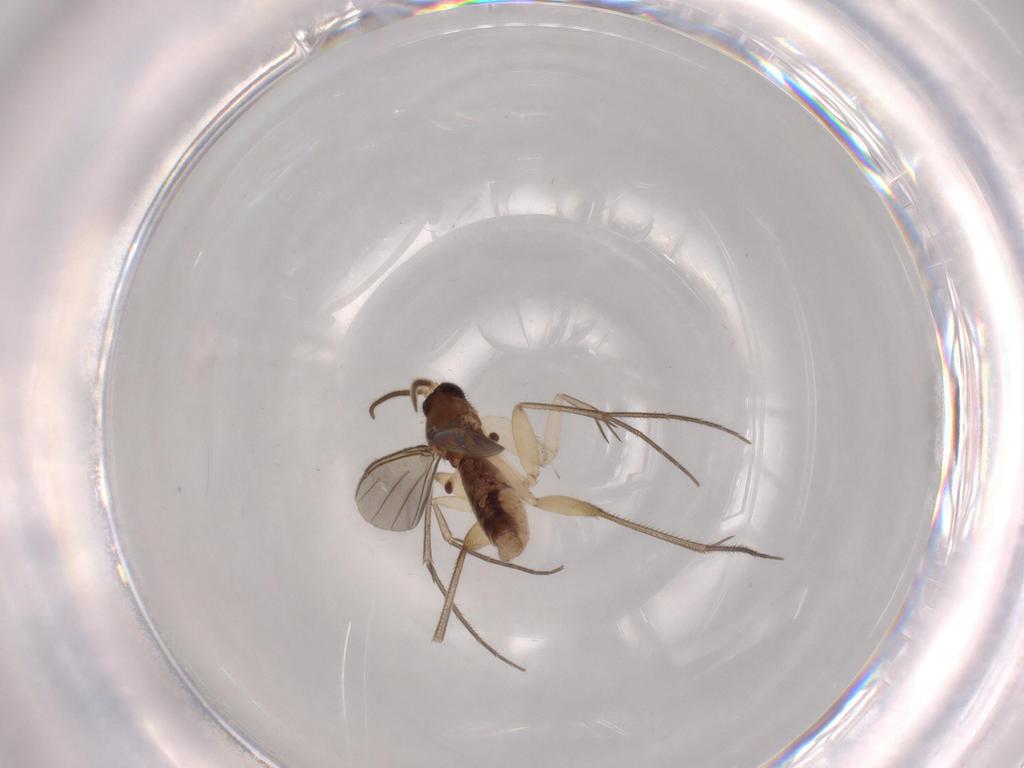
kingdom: Animalia
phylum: Arthropoda
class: Insecta
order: Diptera
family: Mycetophilidae
